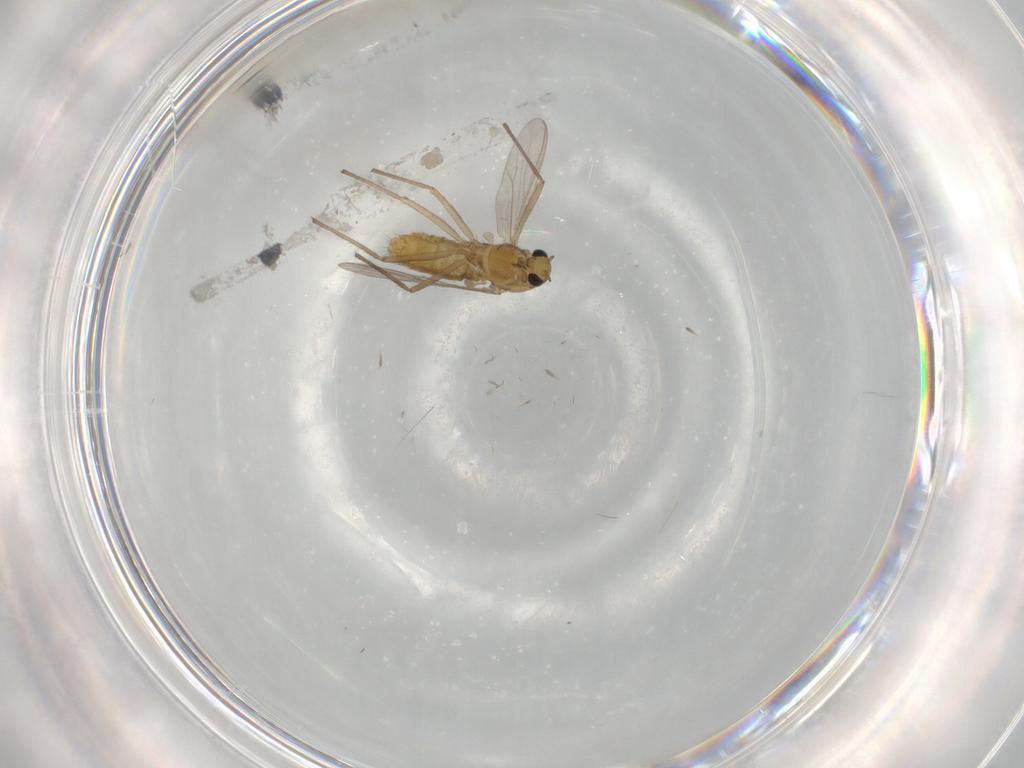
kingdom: Animalia
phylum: Arthropoda
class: Insecta
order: Diptera
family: Chironomidae
